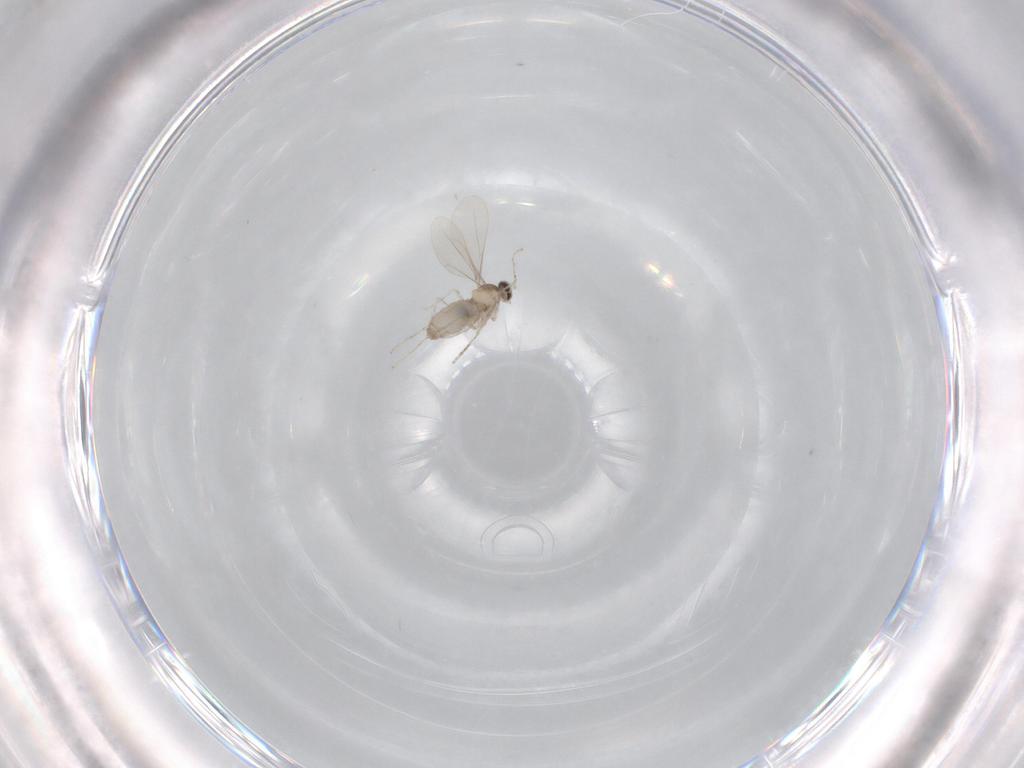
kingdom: Animalia
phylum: Arthropoda
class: Insecta
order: Diptera
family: Cecidomyiidae
